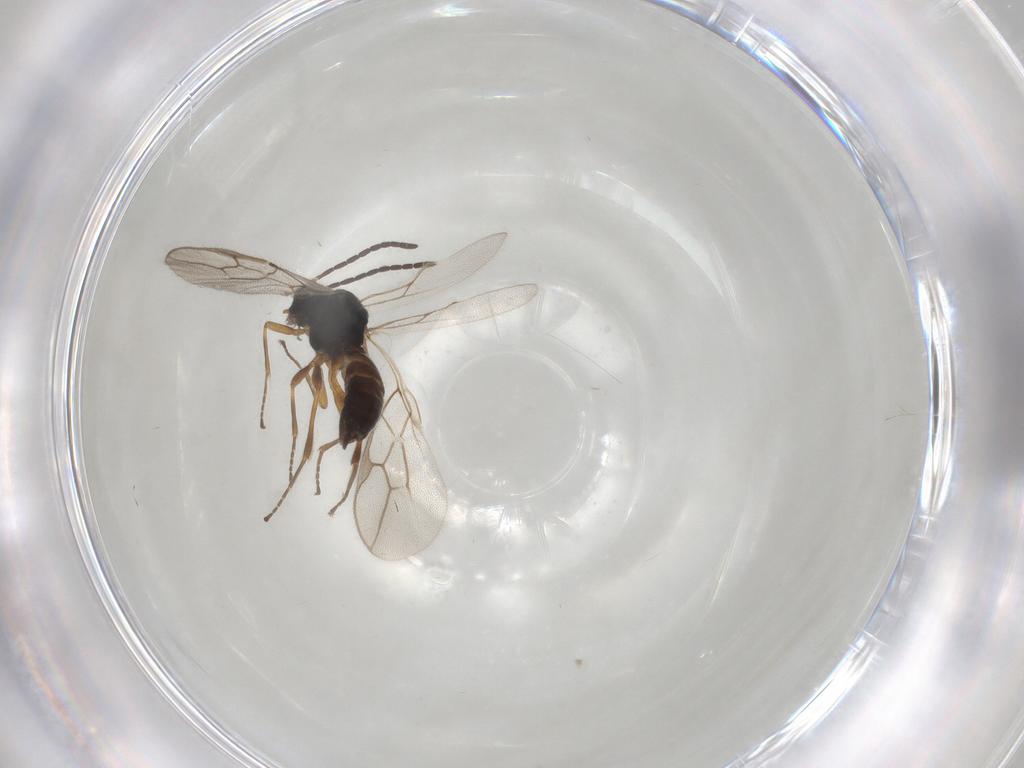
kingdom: Animalia
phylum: Arthropoda
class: Insecta
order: Hymenoptera
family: Braconidae
